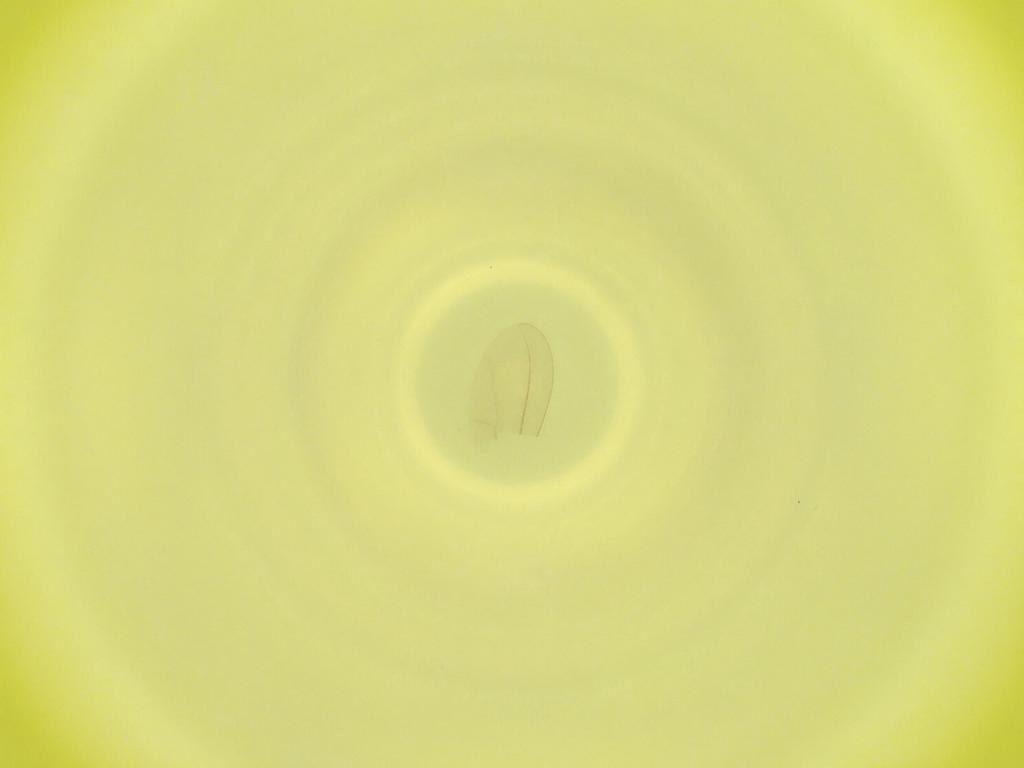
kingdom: Animalia
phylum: Arthropoda
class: Insecta
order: Diptera
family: Cecidomyiidae
